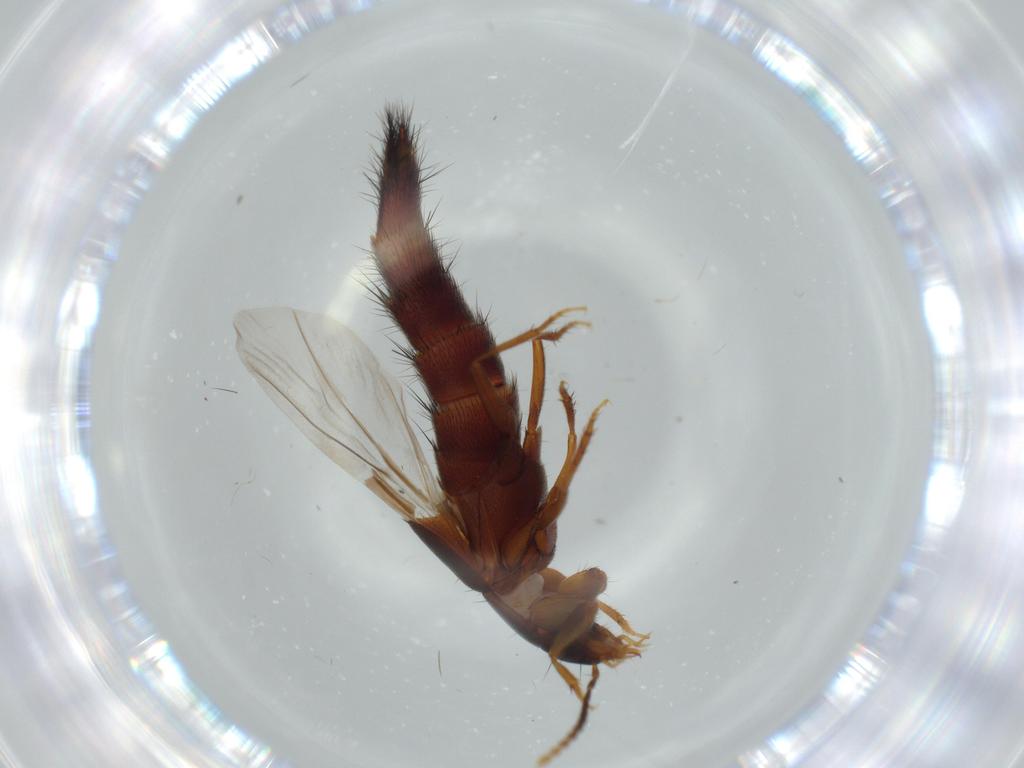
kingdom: Animalia
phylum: Arthropoda
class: Insecta
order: Coleoptera
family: Staphylinidae
